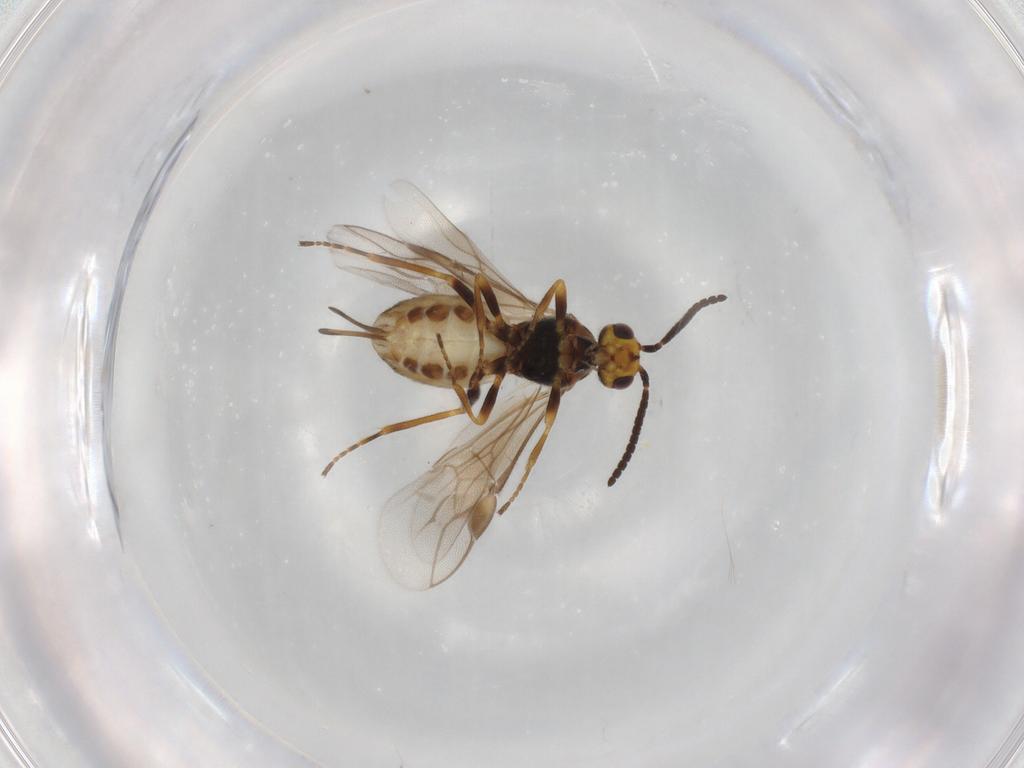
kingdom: Animalia
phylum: Arthropoda
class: Insecta
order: Hymenoptera
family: Braconidae
